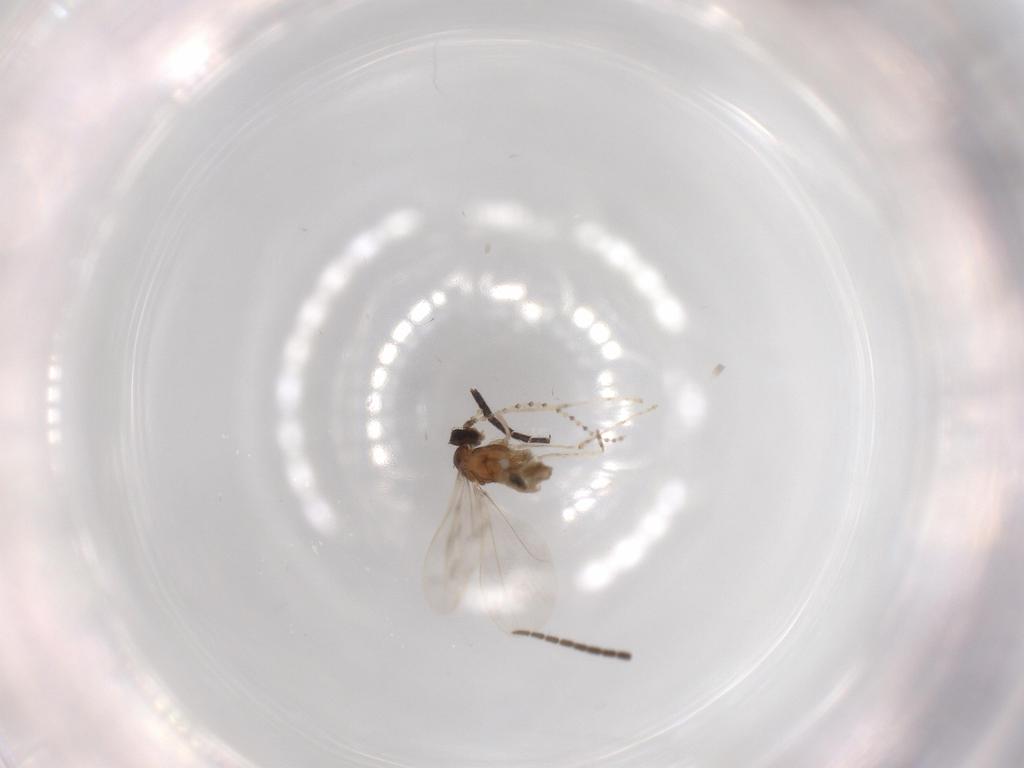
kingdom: Animalia
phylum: Arthropoda
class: Insecta
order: Diptera
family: Cecidomyiidae
